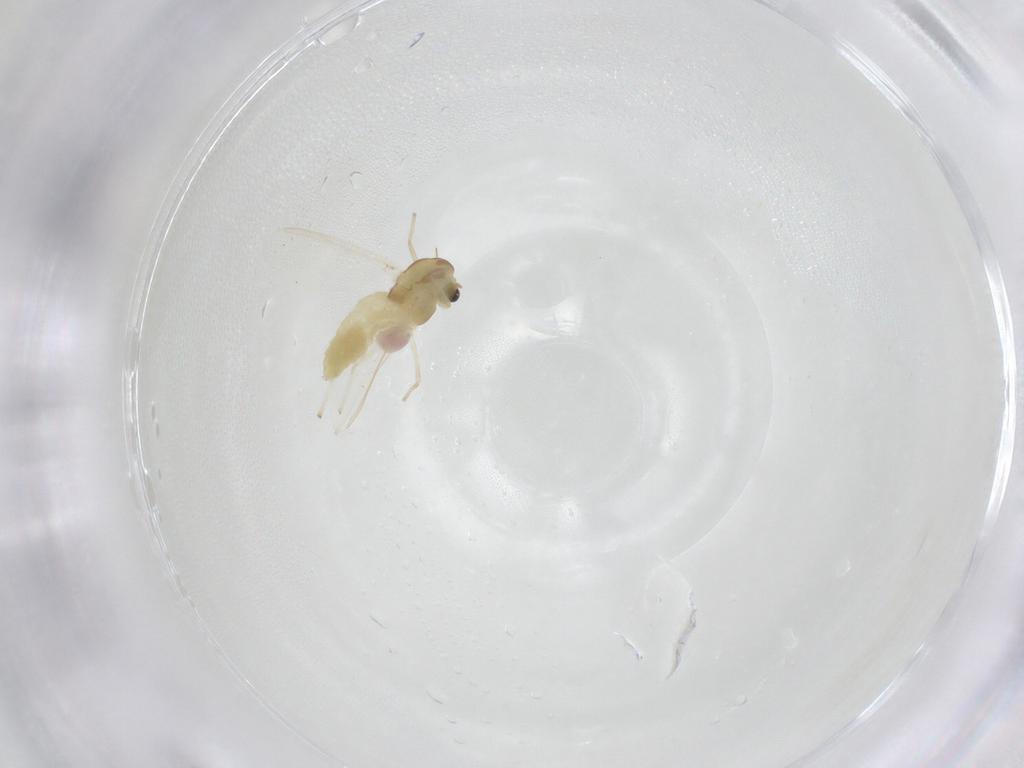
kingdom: Animalia
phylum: Arthropoda
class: Insecta
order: Diptera
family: Chironomidae
